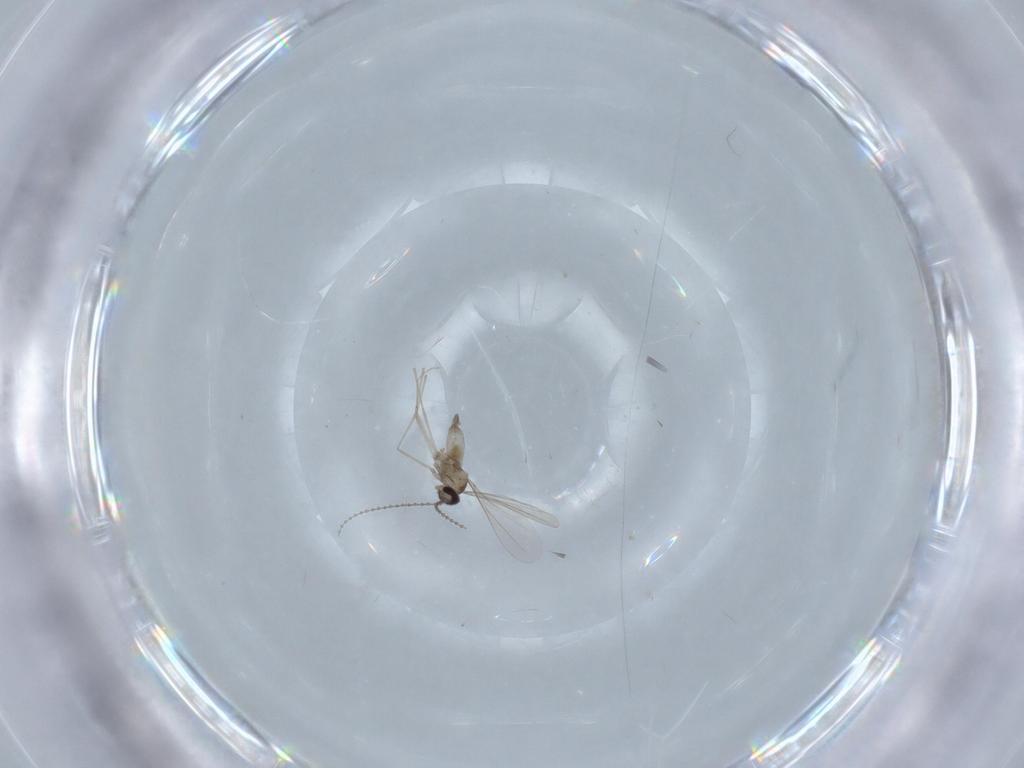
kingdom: Animalia
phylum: Arthropoda
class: Insecta
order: Diptera
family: Cecidomyiidae
